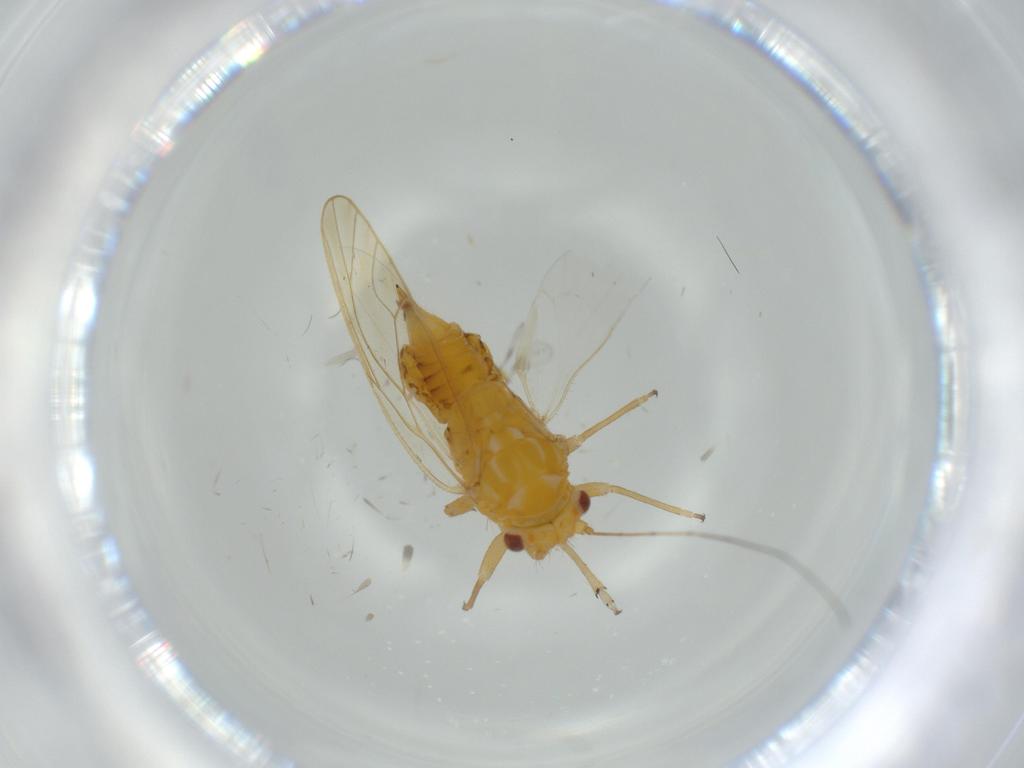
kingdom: Animalia
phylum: Arthropoda
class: Insecta
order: Hemiptera
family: Psyllidae
